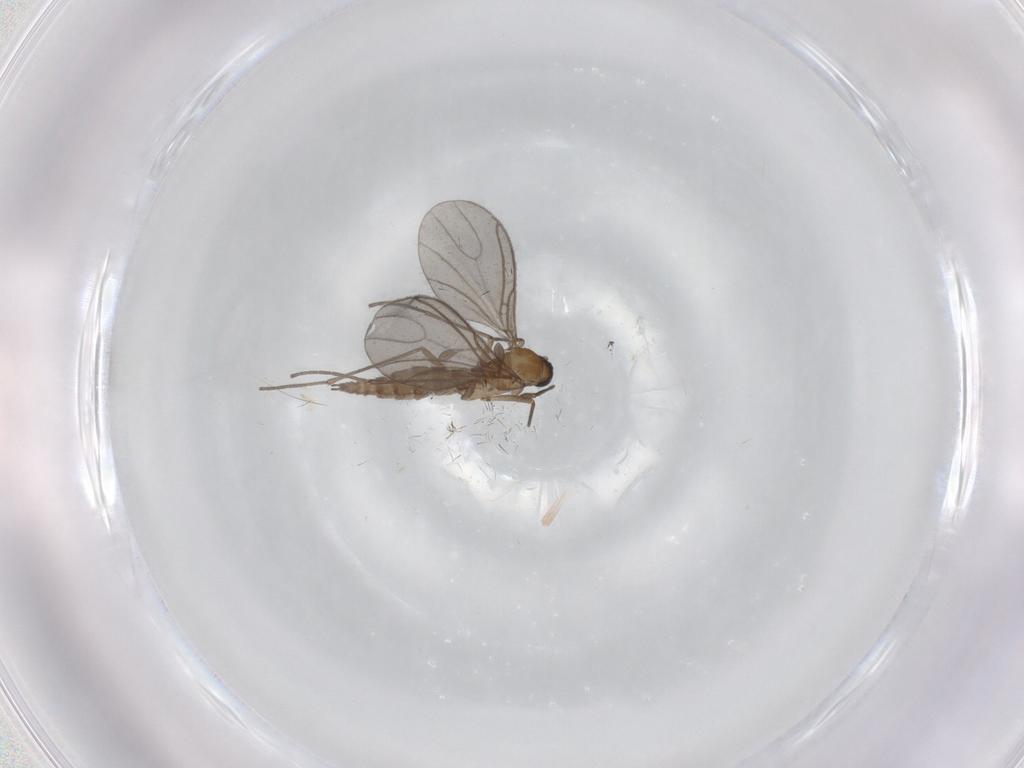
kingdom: Animalia
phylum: Arthropoda
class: Insecta
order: Diptera
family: Sciaridae
